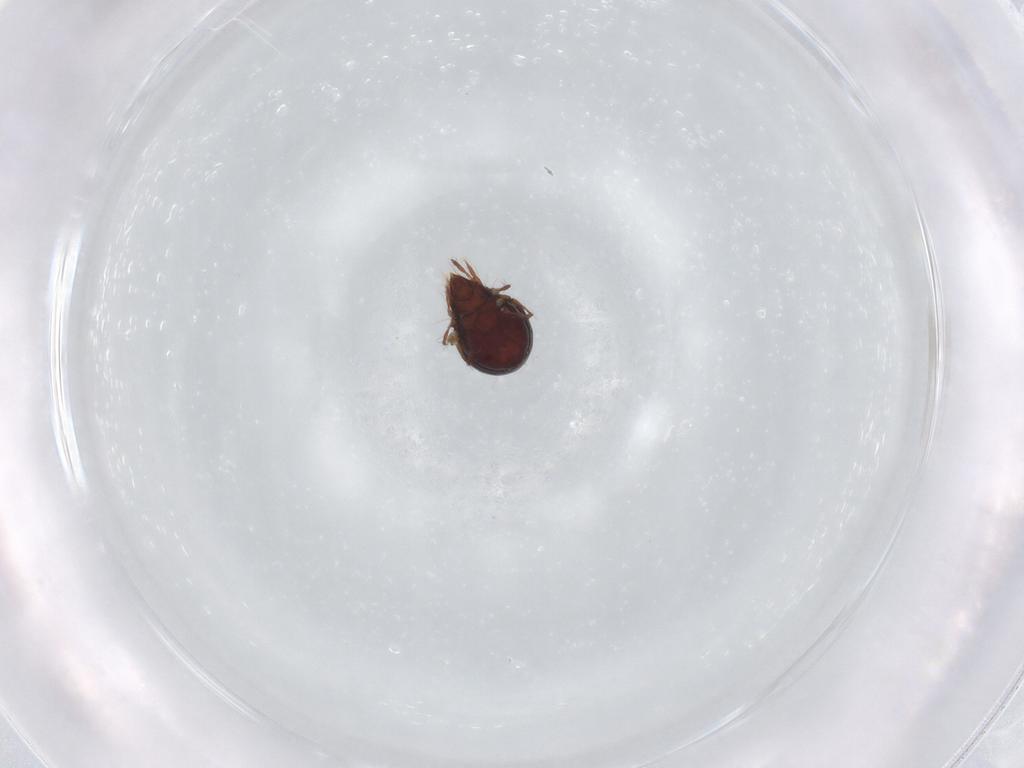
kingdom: Animalia
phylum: Arthropoda
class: Arachnida
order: Sarcoptiformes
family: Ceratoppiidae
